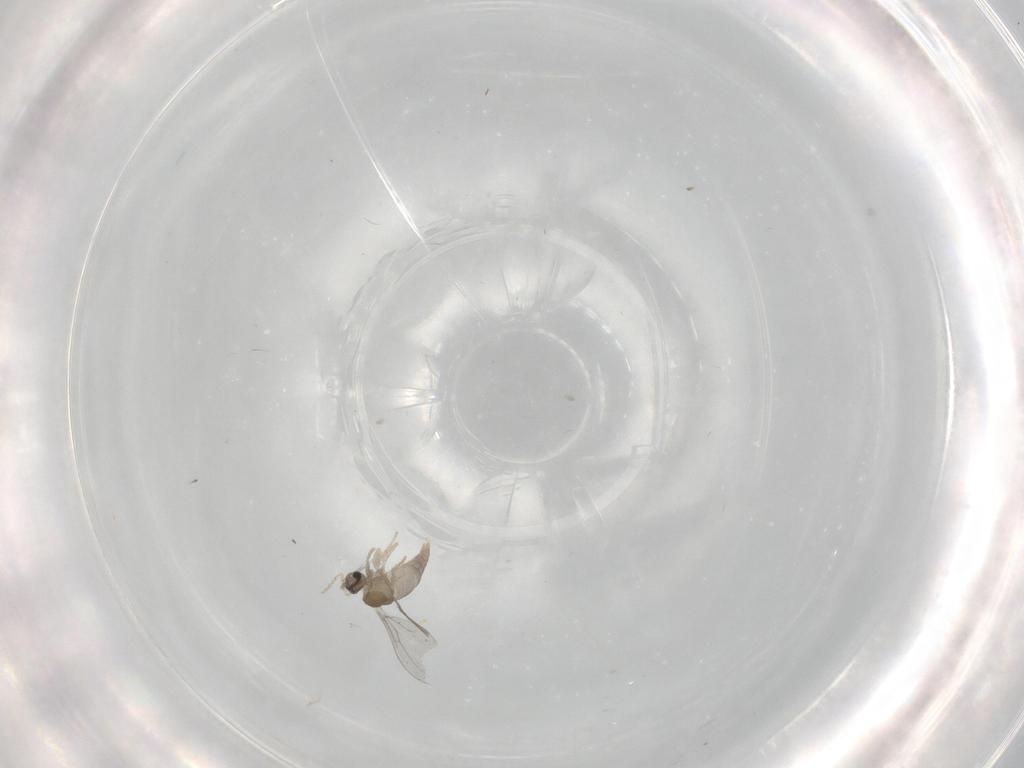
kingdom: Animalia
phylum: Arthropoda
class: Insecta
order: Diptera
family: Cecidomyiidae
